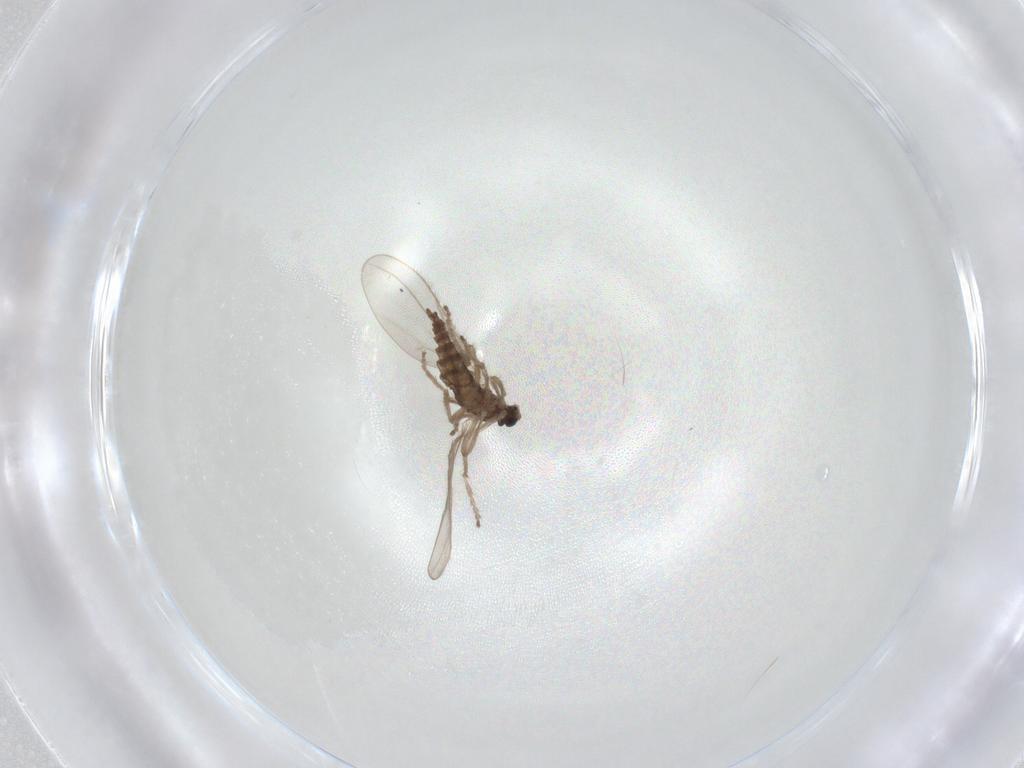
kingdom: Animalia
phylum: Arthropoda
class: Insecta
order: Diptera
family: Cecidomyiidae
